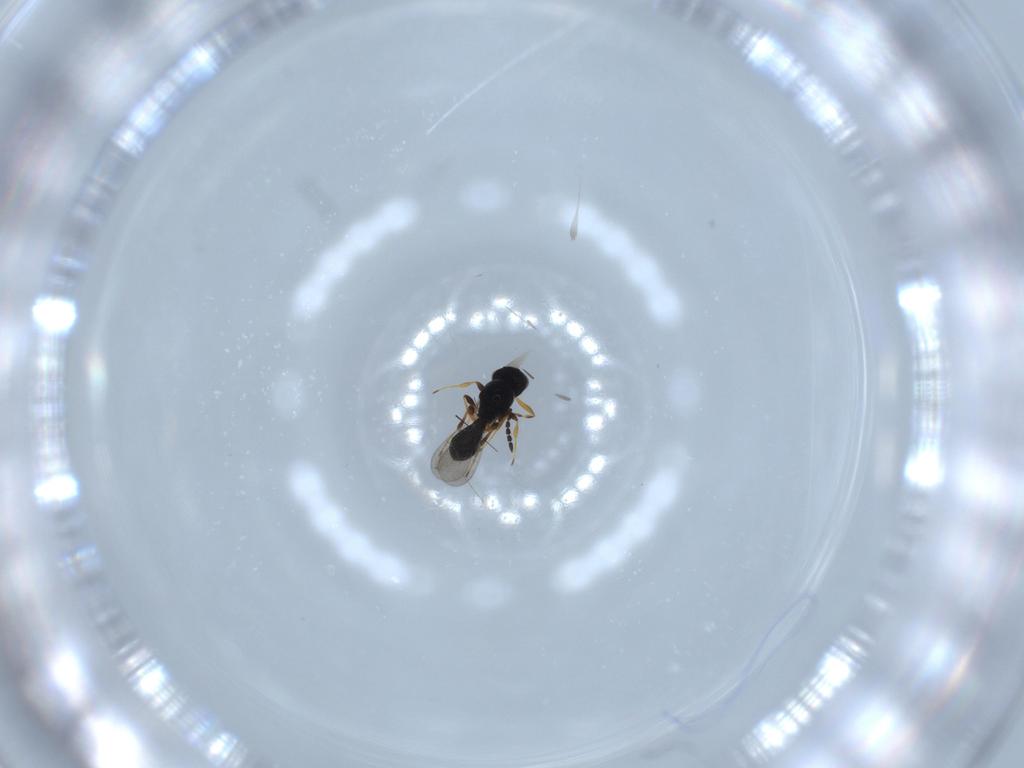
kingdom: Animalia
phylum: Arthropoda
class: Insecta
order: Hymenoptera
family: Platygastridae
